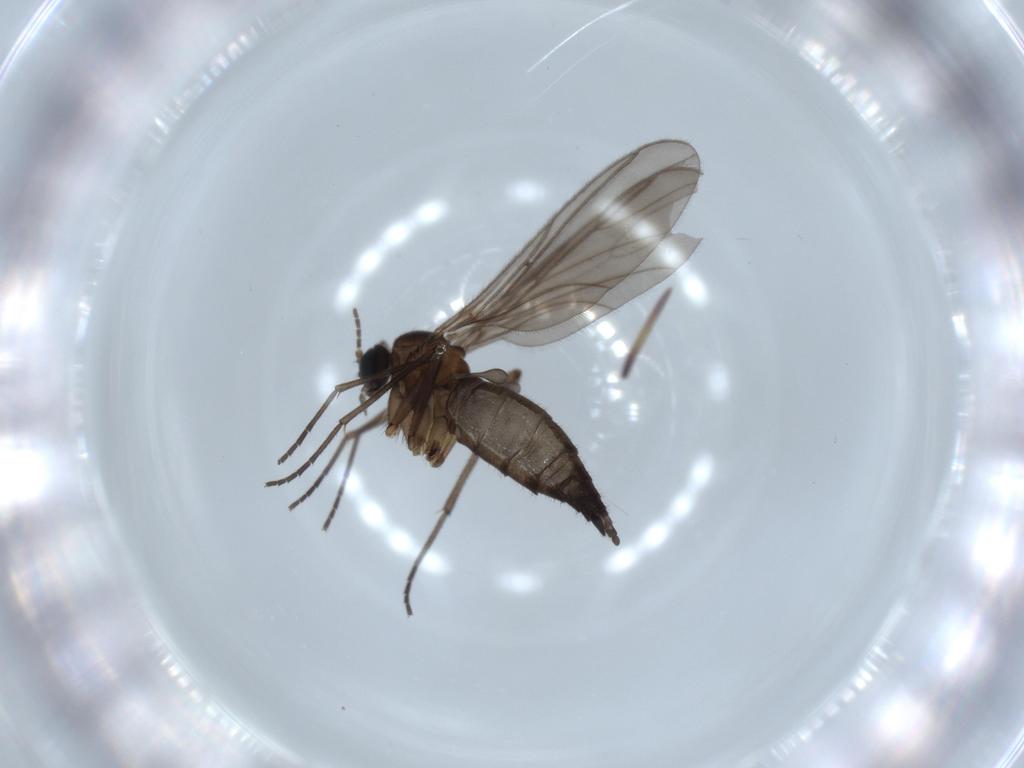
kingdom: Animalia
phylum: Arthropoda
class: Insecta
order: Diptera
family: Sciaridae
